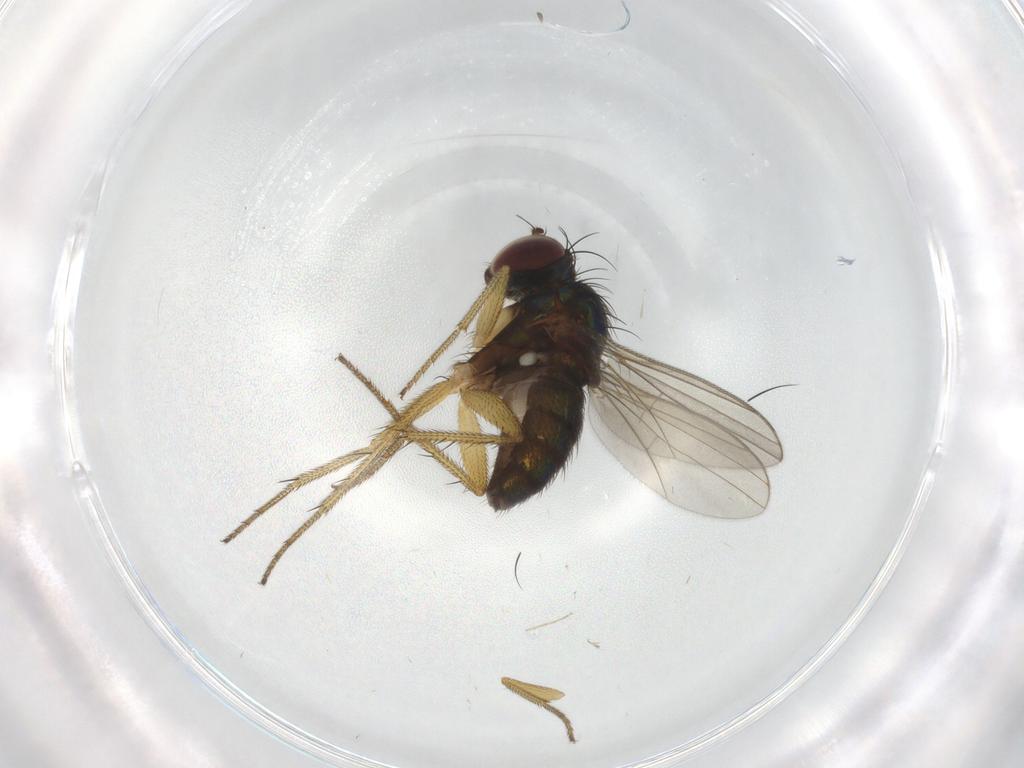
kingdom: Animalia
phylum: Arthropoda
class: Insecta
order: Diptera
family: Chironomidae
